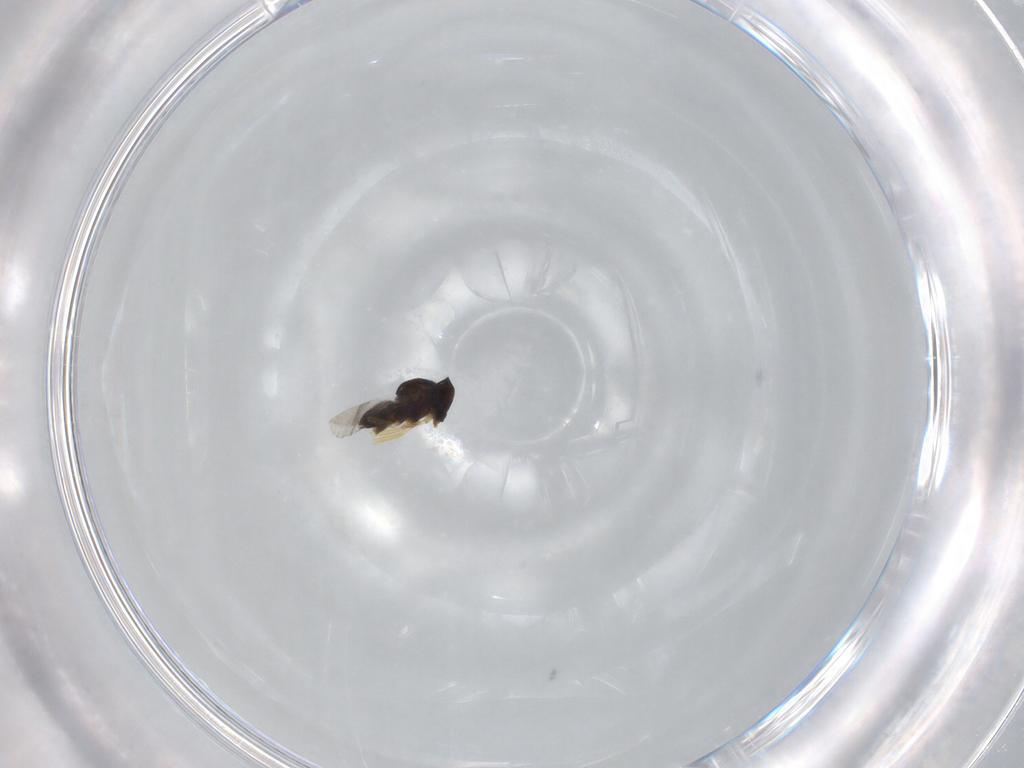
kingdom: Animalia
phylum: Arthropoda
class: Insecta
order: Hymenoptera
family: Encyrtidae
